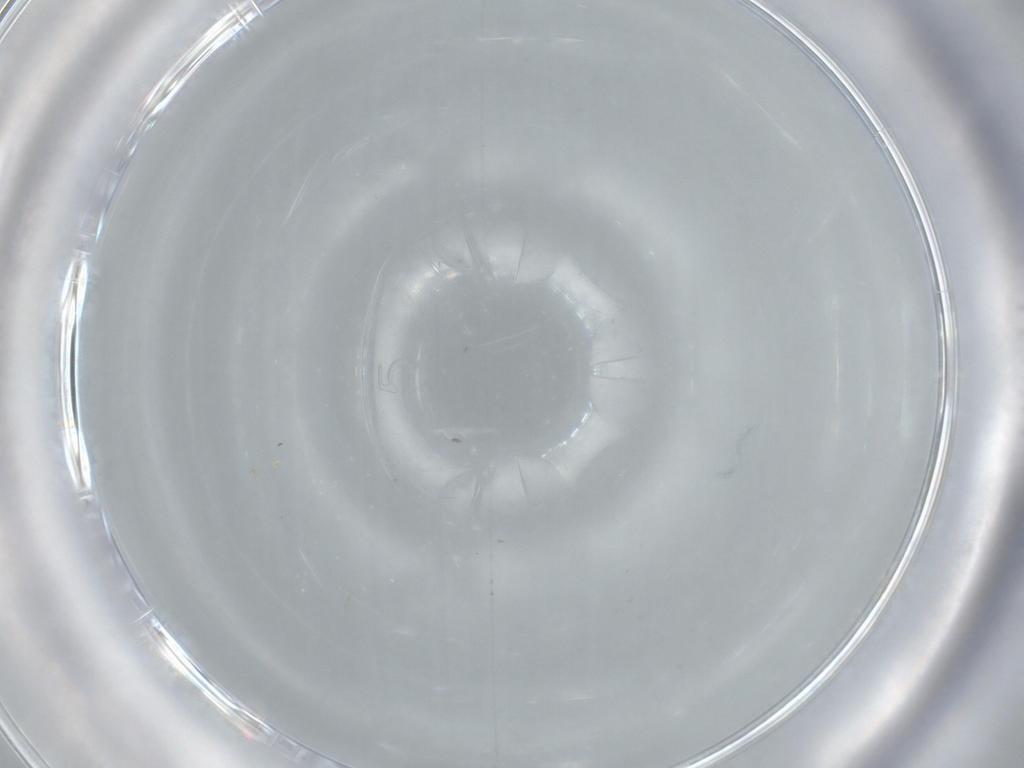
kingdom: Animalia
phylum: Arthropoda
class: Insecta
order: Diptera
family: Sciaridae
